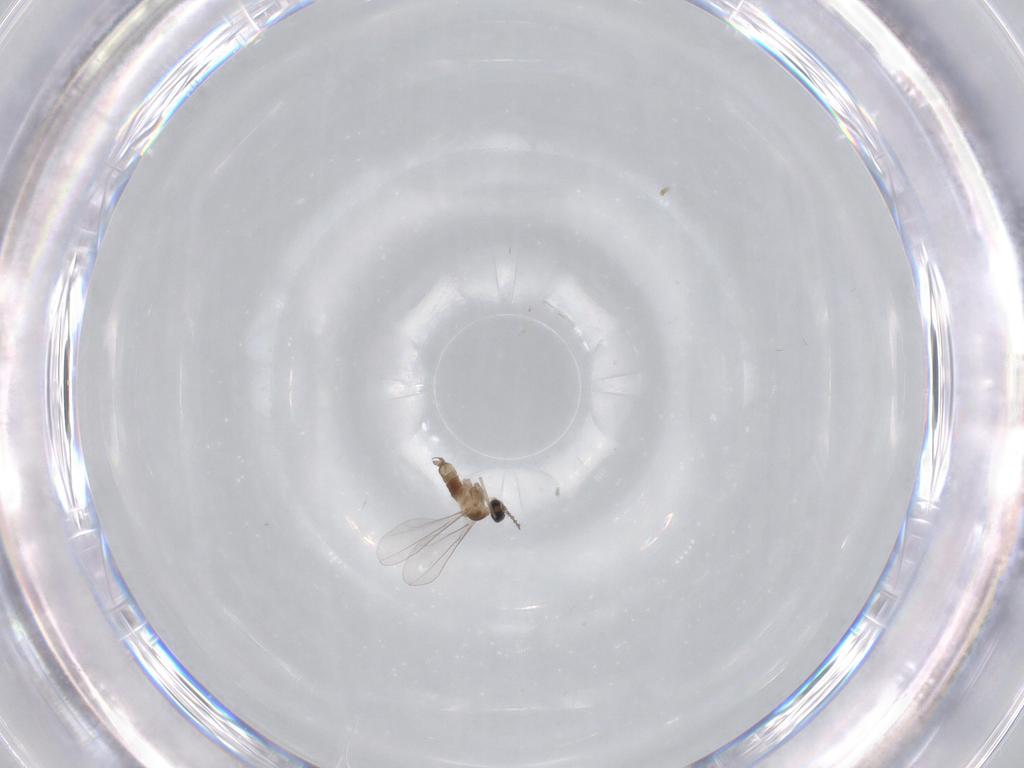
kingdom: Animalia
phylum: Arthropoda
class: Insecta
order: Diptera
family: Cecidomyiidae
